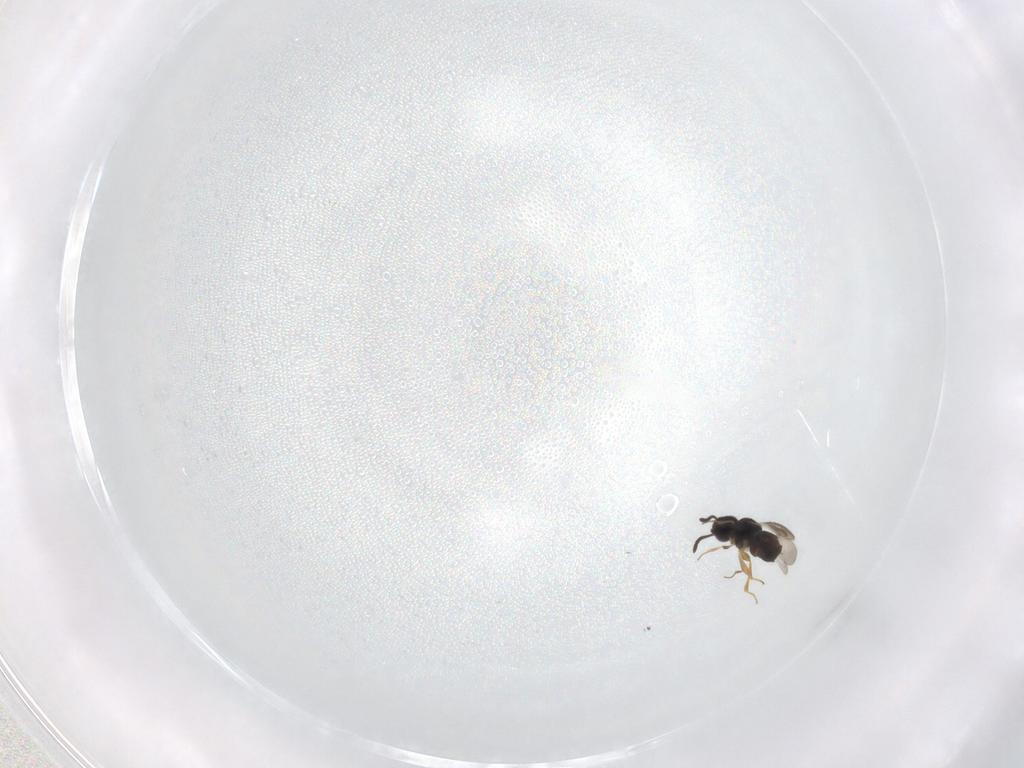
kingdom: Animalia
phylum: Arthropoda
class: Insecta
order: Hymenoptera
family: Eulophidae
